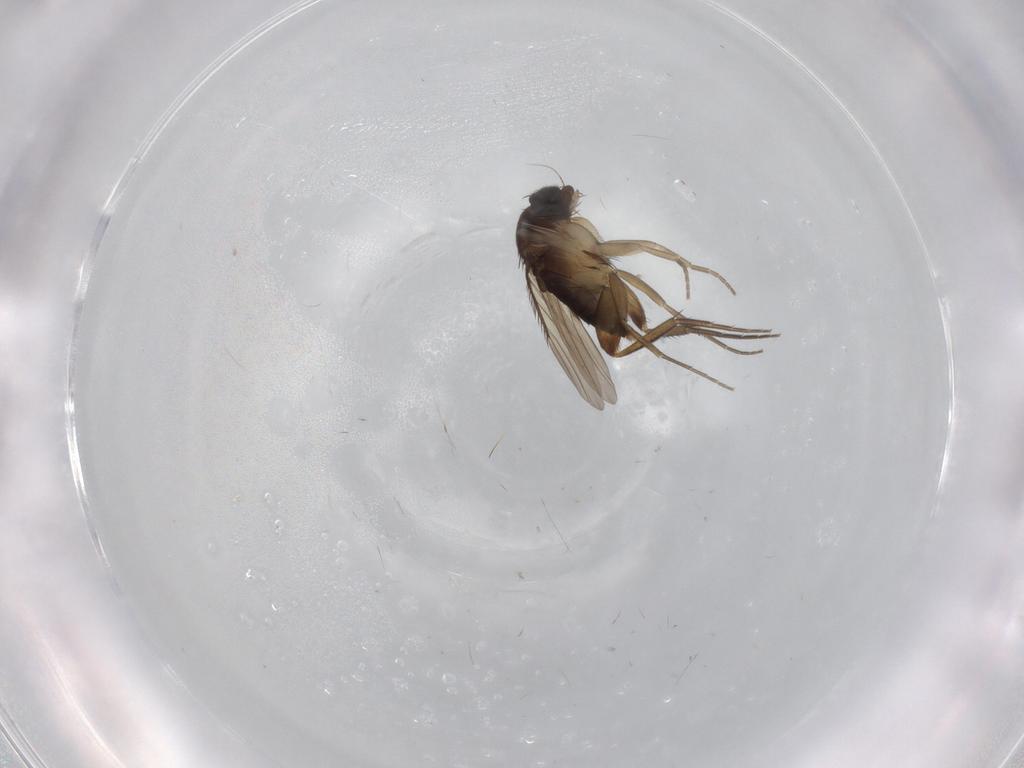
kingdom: Animalia
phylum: Arthropoda
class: Insecta
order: Diptera
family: Phoridae
